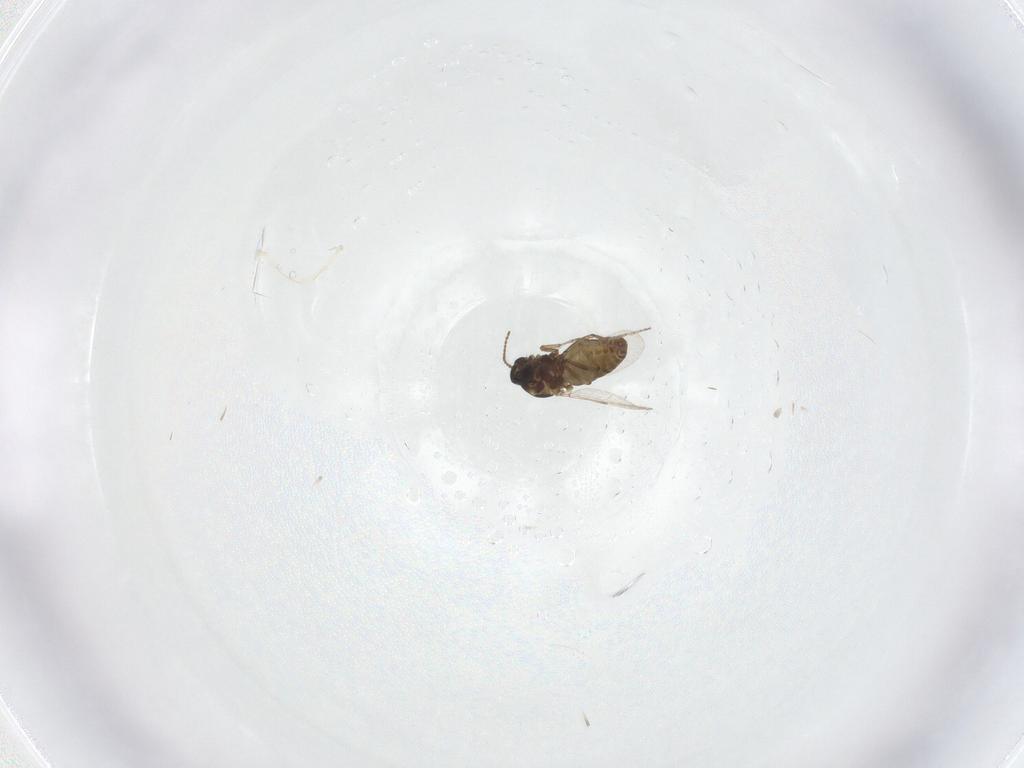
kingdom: Animalia
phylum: Arthropoda
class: Insecta
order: Diptera
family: Ceratopogonidae
